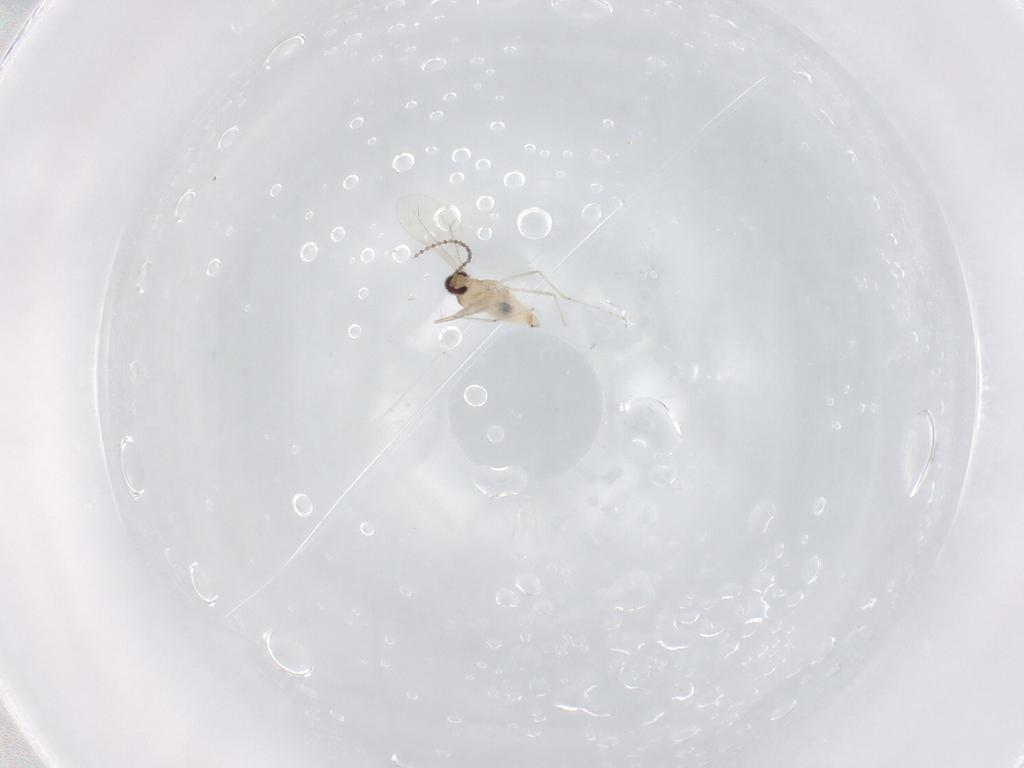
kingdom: Animalia
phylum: Arthropoda
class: Insecta
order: Diptera
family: Cecidomyiidae
